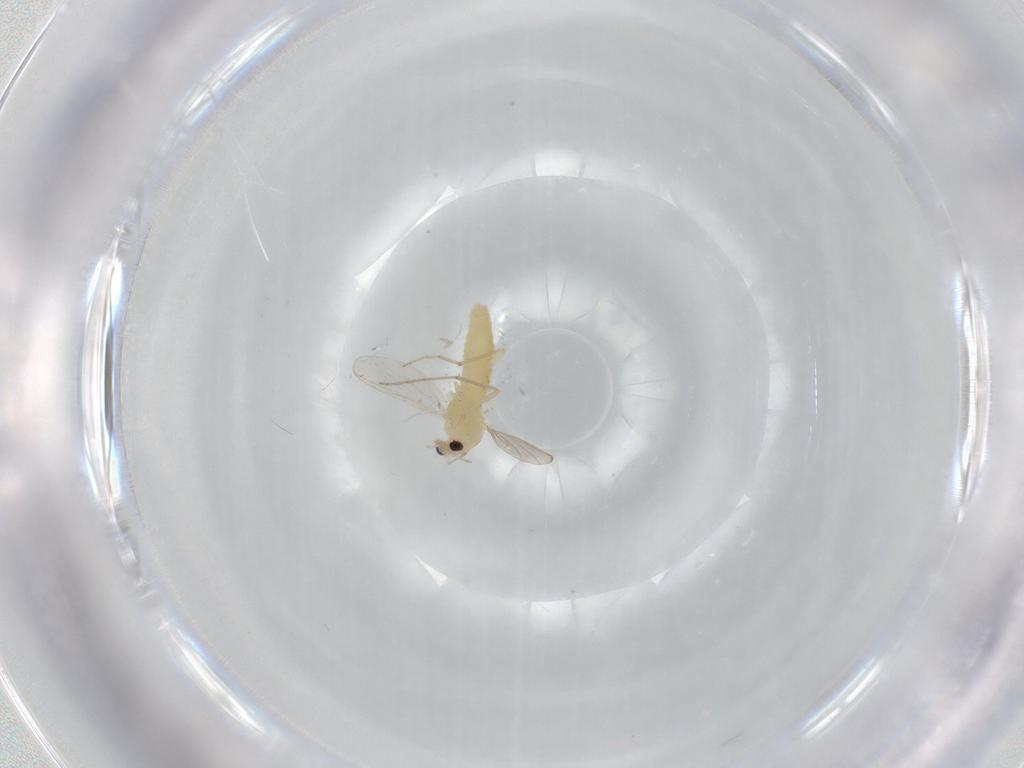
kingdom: Animalia
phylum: Arthropoda
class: Insecta
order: Diptera
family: Chironomidae
